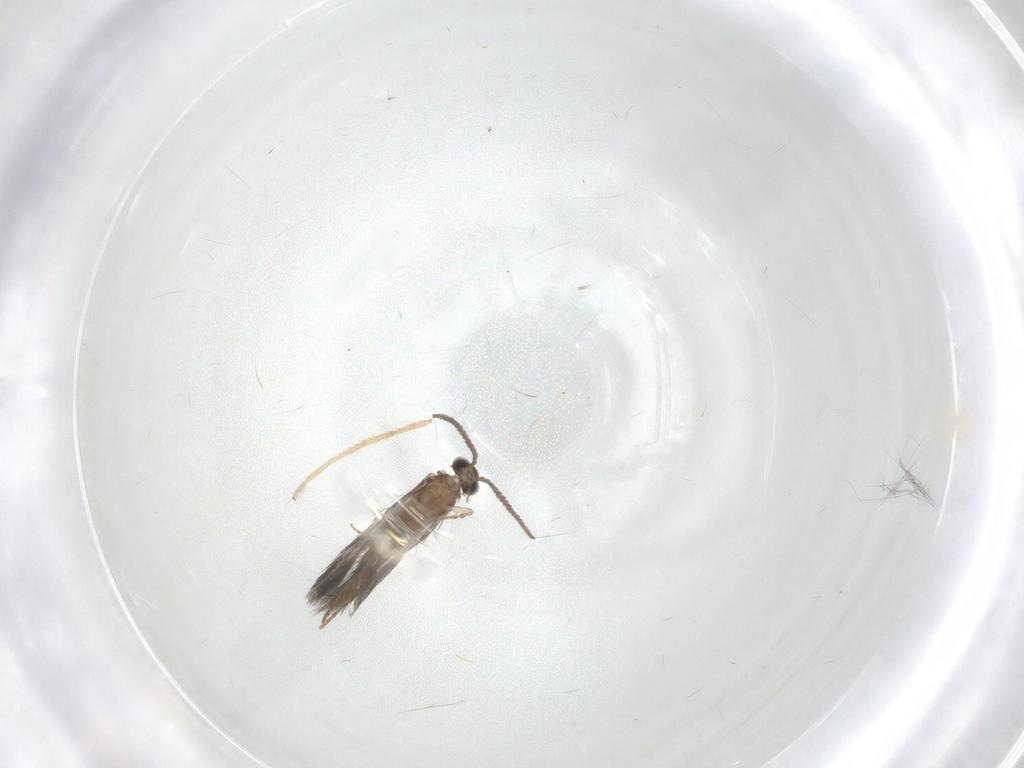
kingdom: Animalia
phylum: Arthropoda
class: Insecta
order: Trichoptera
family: Hydroptilidae
